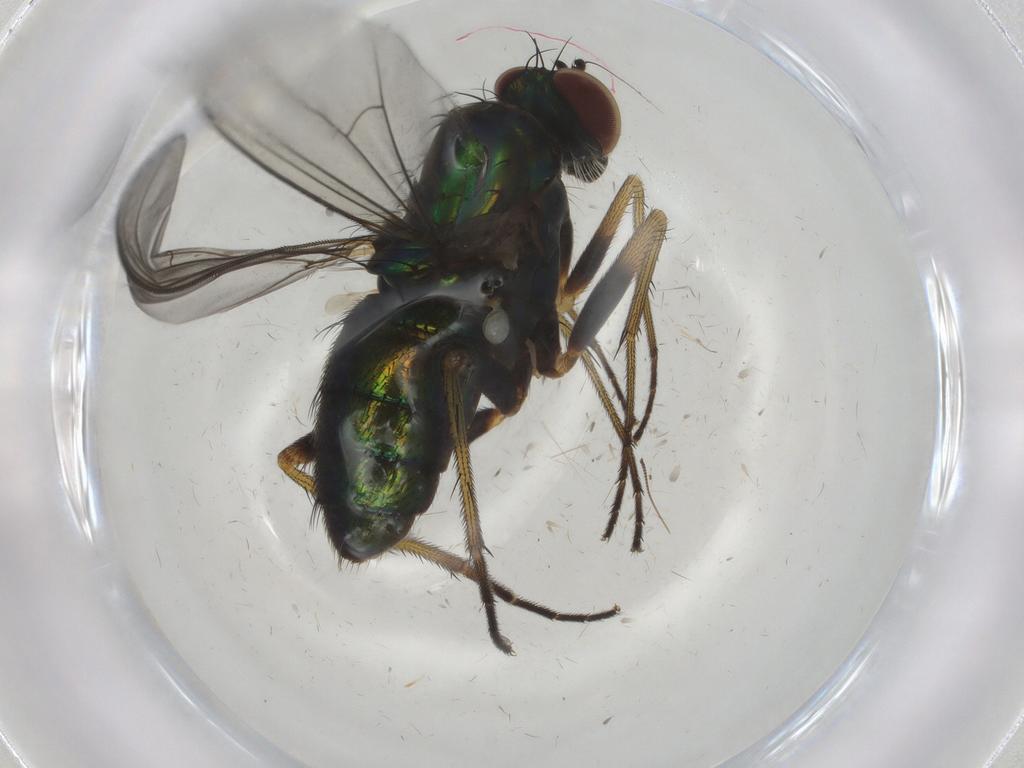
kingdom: Animalia
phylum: Arthropoda
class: Insecta
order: Diptera
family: Dolichopodidae
